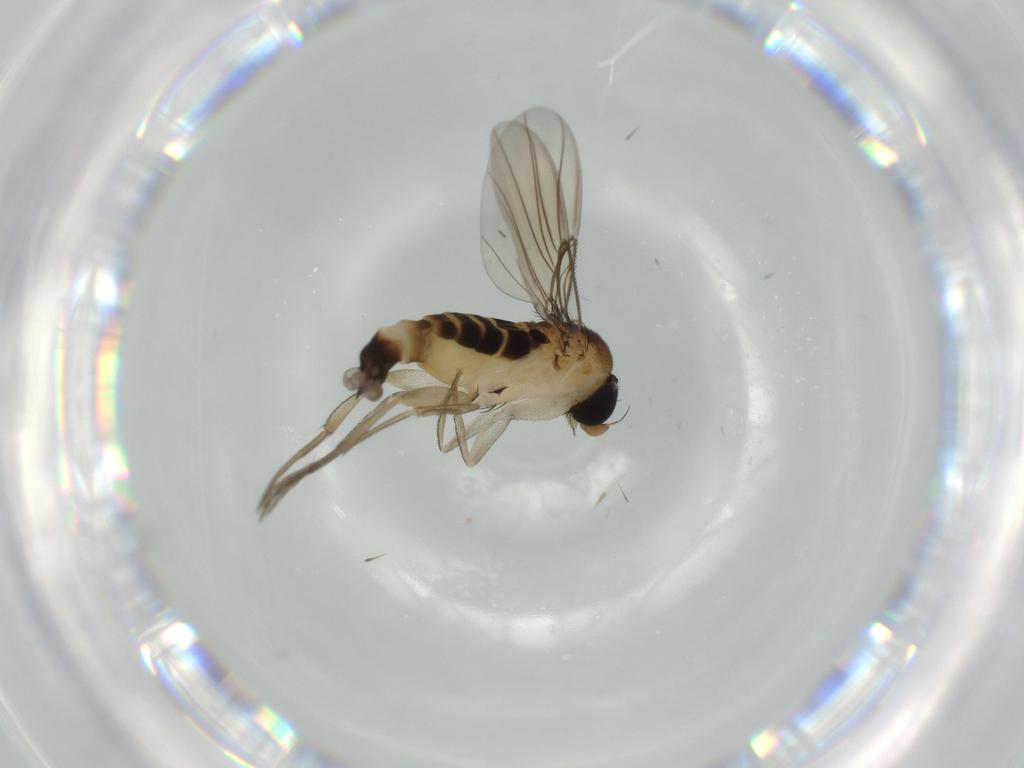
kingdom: Animalia
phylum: Arthropoda
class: Insecta
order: Diptera
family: Phoridae
